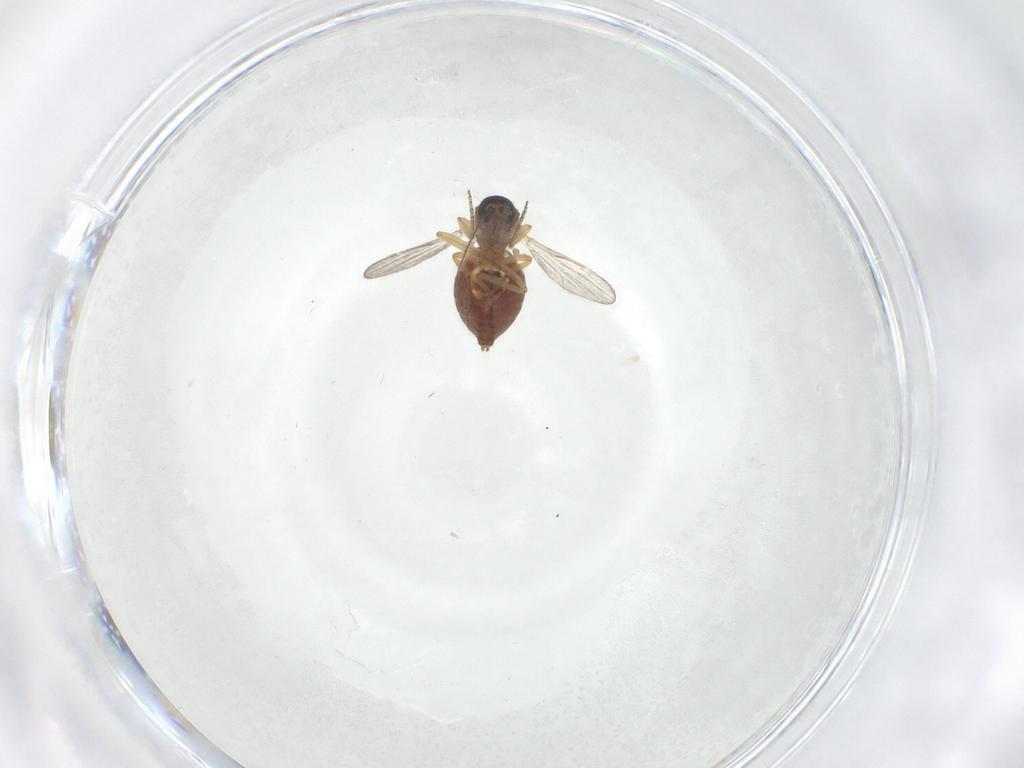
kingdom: Animalia
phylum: Arthropoda
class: Insecta
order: Diptera
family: Ceratopogonidae
